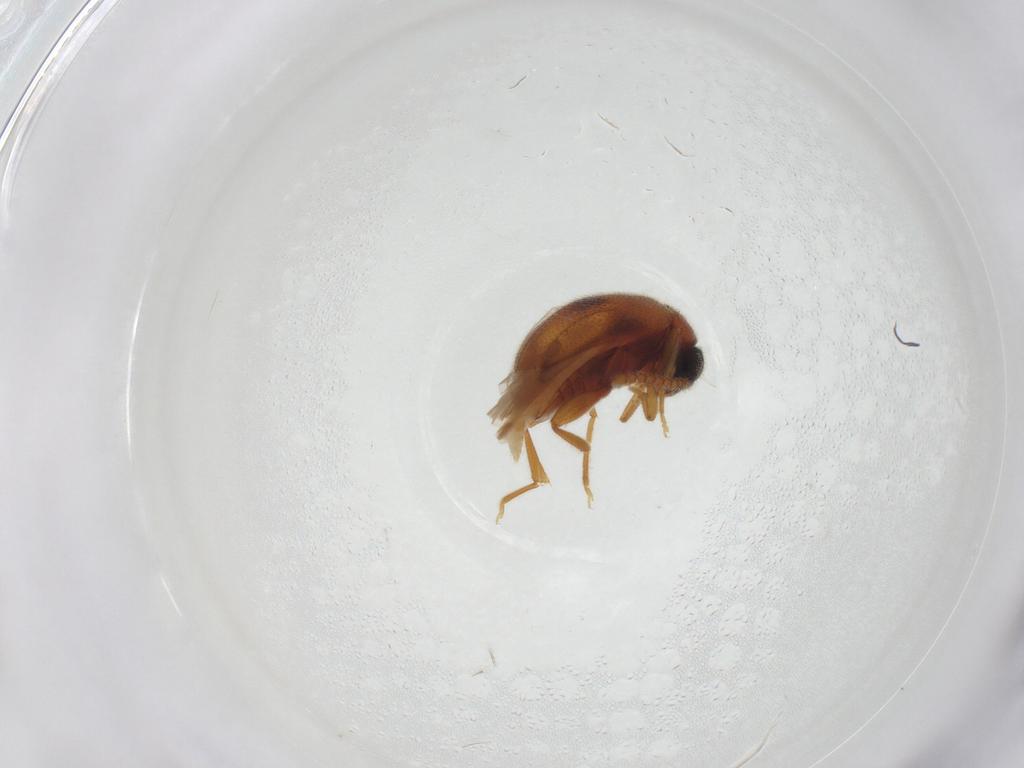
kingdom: Animalia
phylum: Arthropoda
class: Insecta
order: Coleoptera
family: Aderidae
